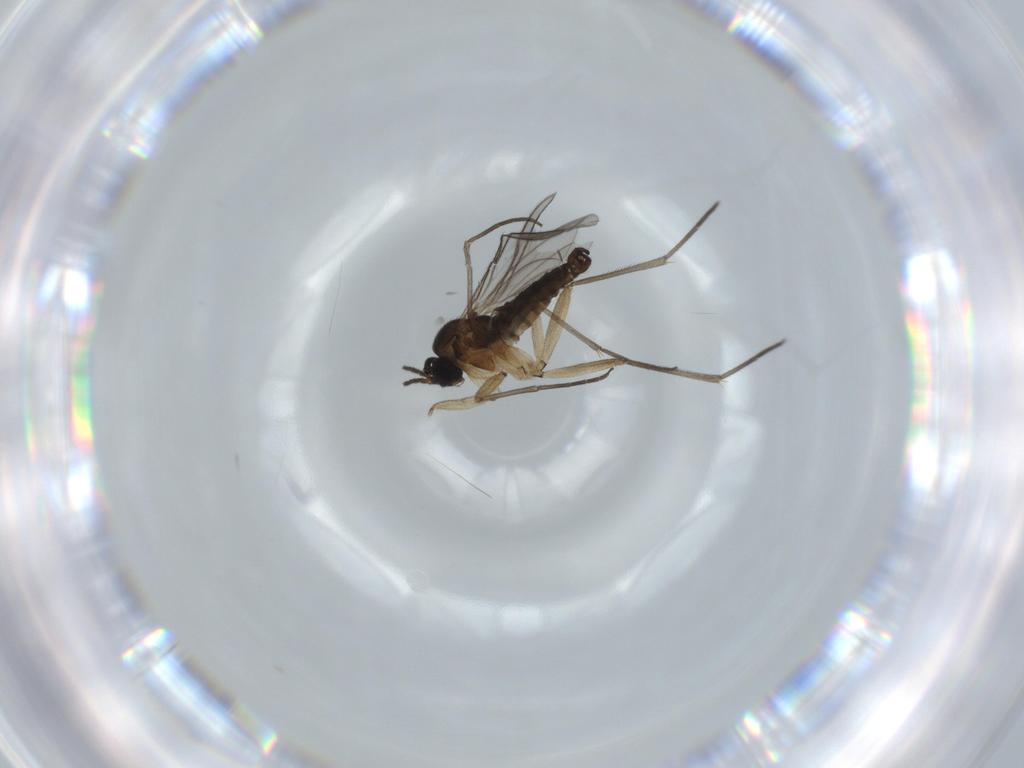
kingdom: Animalia
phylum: Arthropoda
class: Insecta
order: Diptera
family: Sciaridae
